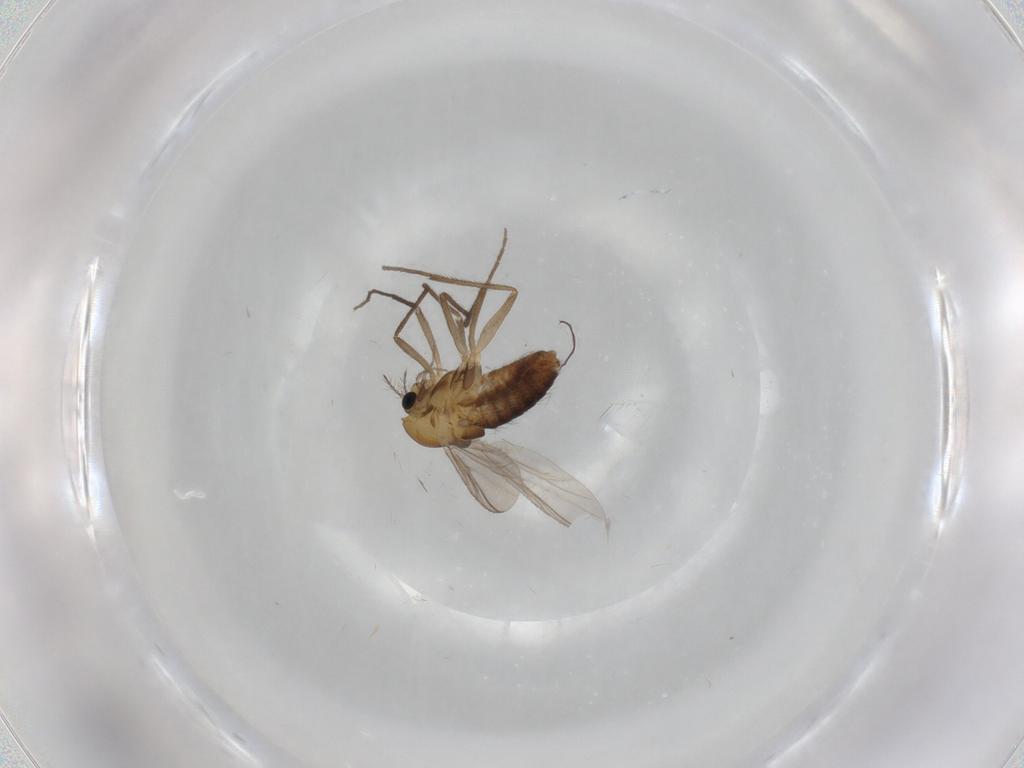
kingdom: Animalia
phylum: Arthropoda
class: Insecta
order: Diptera
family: Chironomidae
